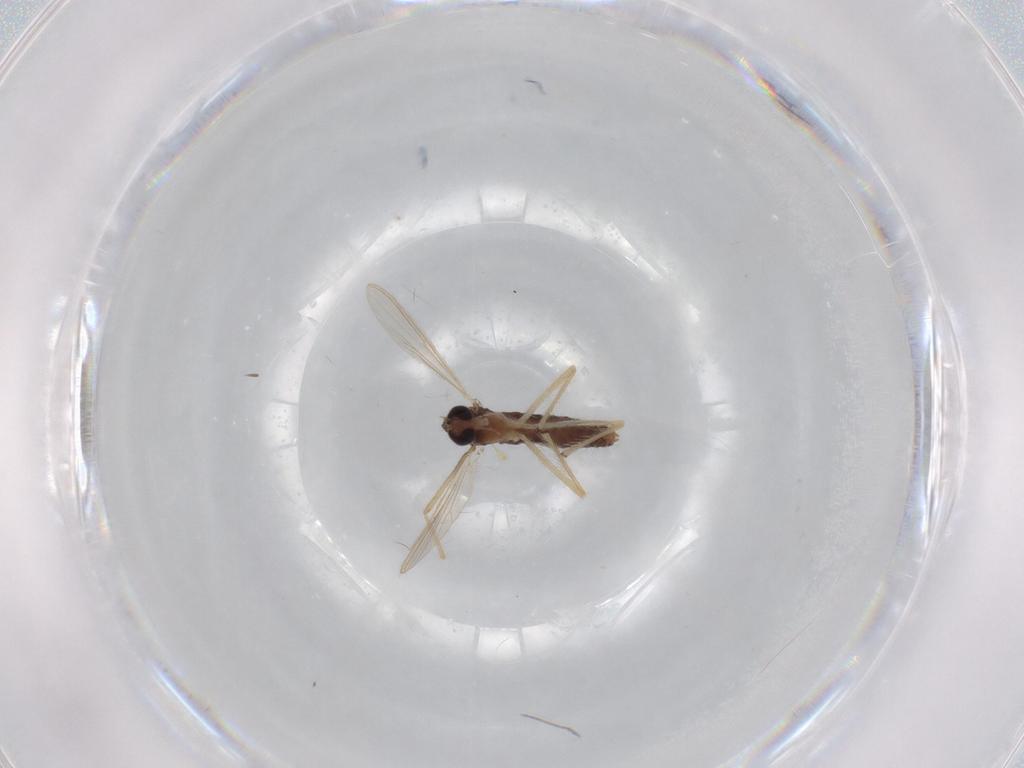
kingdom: Animalia
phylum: Arthropoda
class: Insecta
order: Diptera
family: Chironomidae
